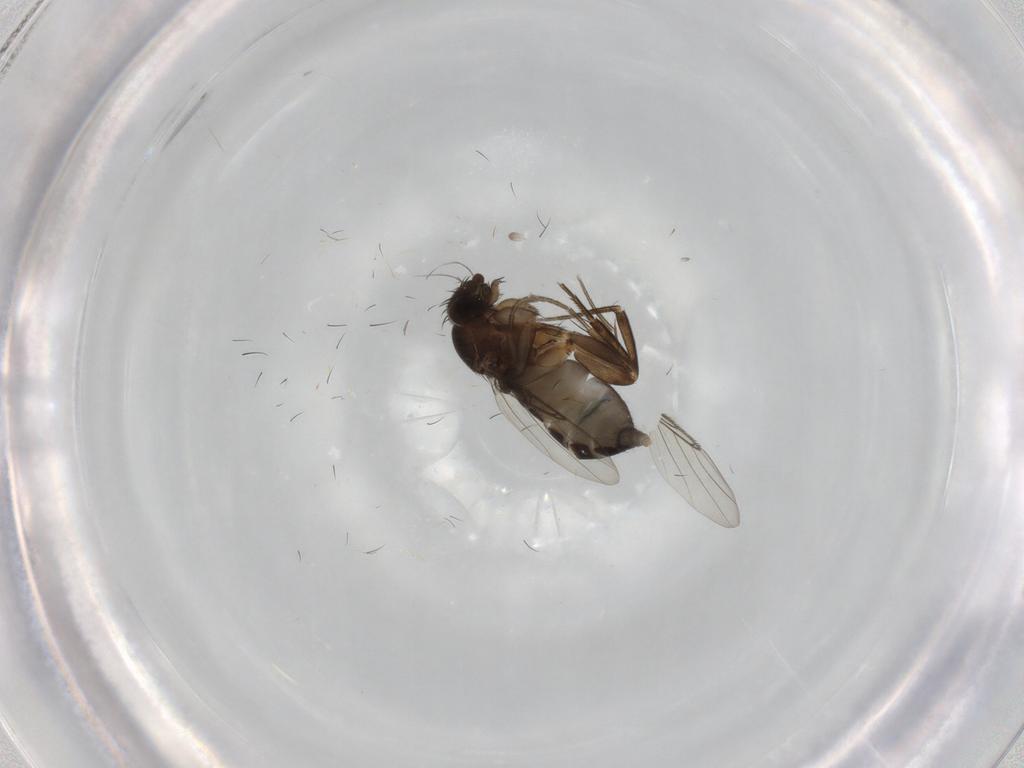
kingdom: Animalia
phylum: Arthropoda
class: Insecta
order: Diptera
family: Phoridae
